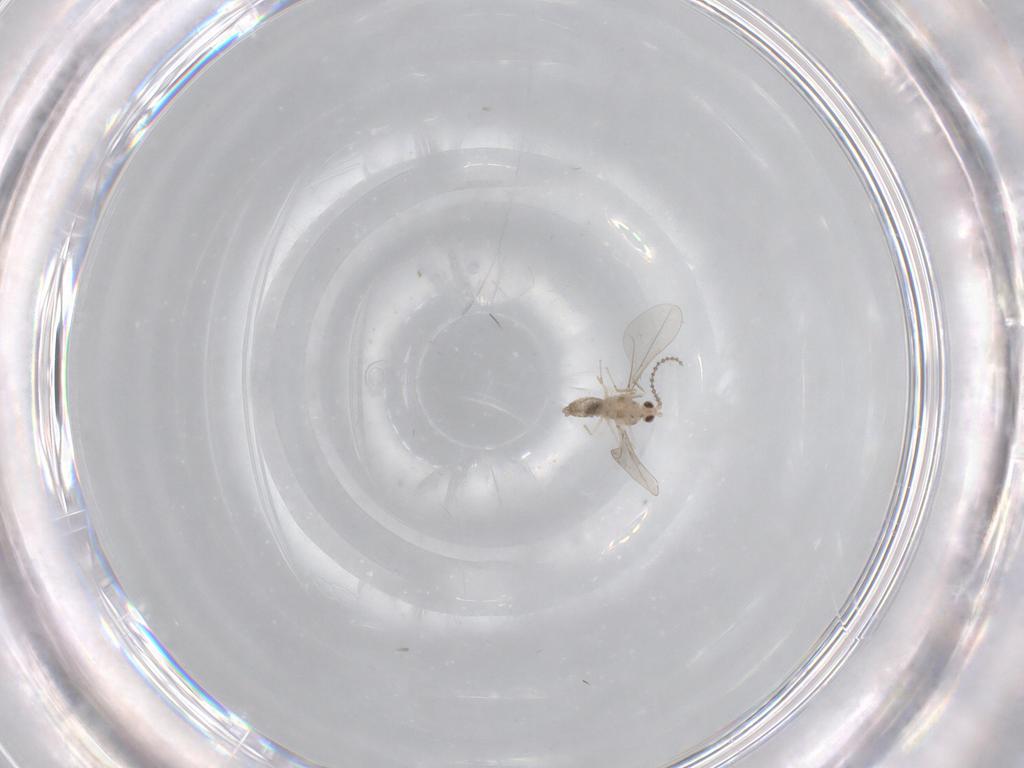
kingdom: Animalia
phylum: Arthropoda
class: Insecta
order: Diptera
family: Cecidomyiidae
